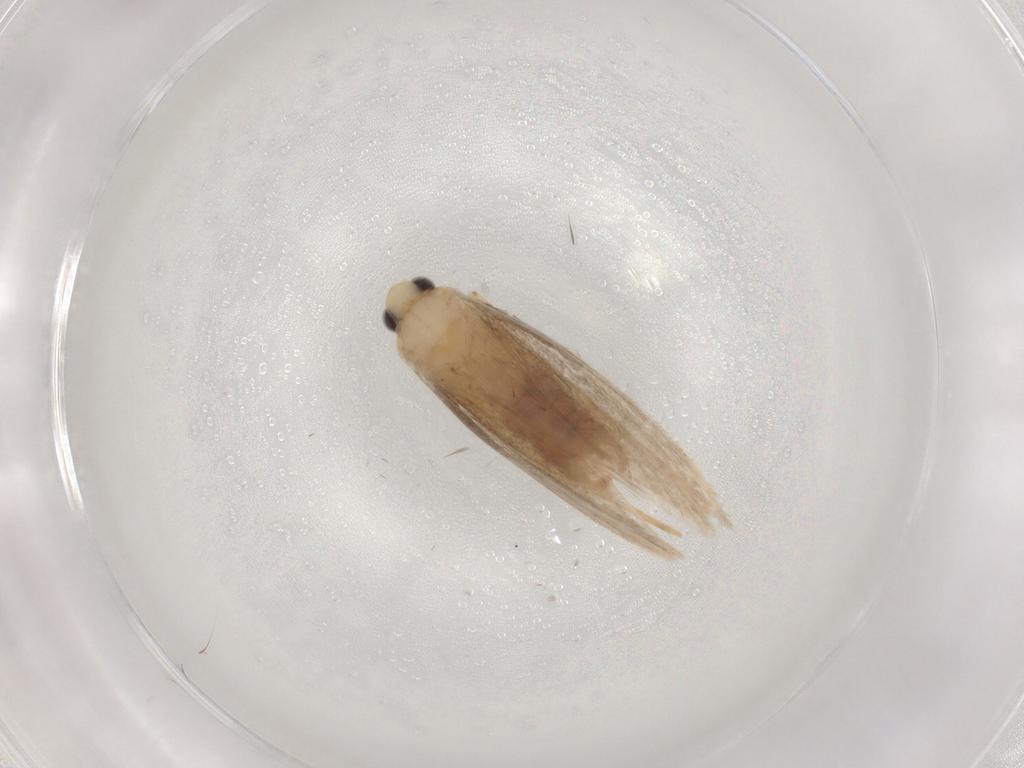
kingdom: Animalia
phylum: Arthropoda
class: Insecta
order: Lepidoptera
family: Dryadaulidae
